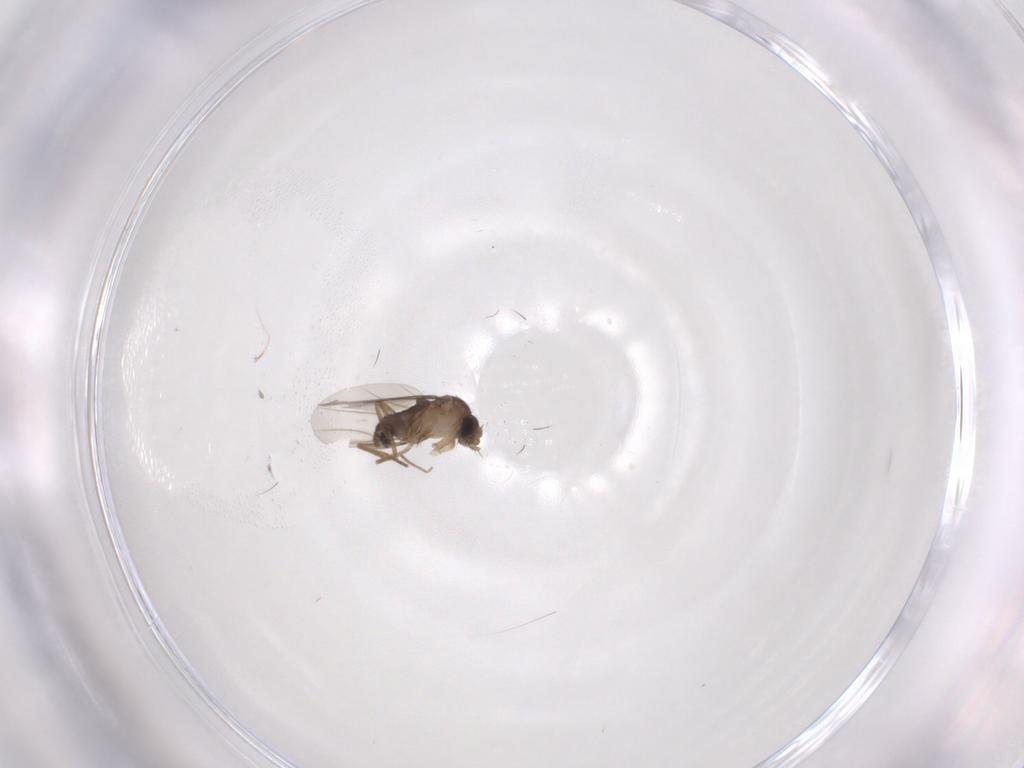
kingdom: Animalia
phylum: Arthropoda
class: Insecta
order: Diptera
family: Phoridae
